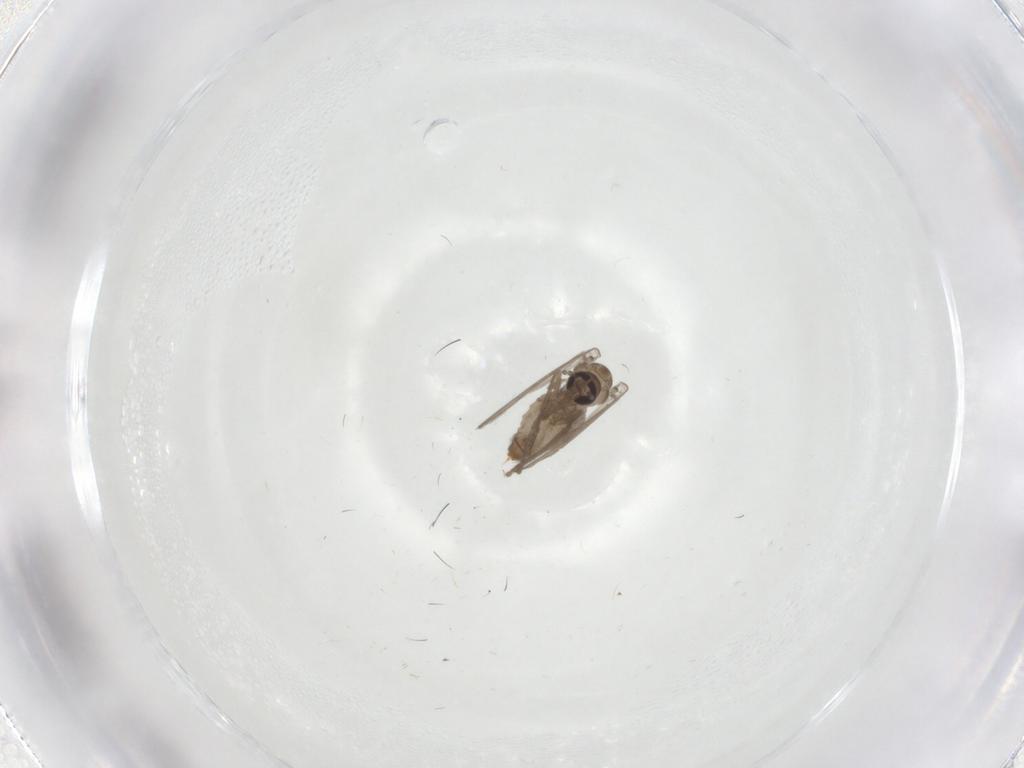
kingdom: Animalia
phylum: Arthropoda
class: Insecta
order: Diptera
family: Psychodidae
